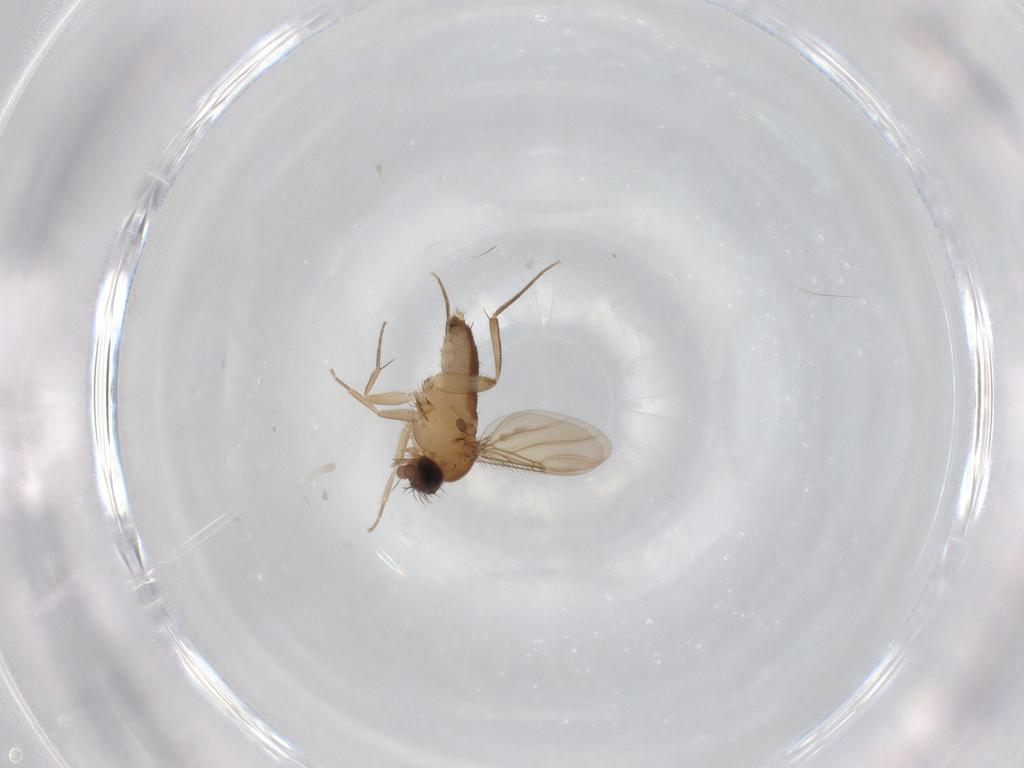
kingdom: Animalia
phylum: Arthropoda
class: Insecta
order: Diptera
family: Phoridae
